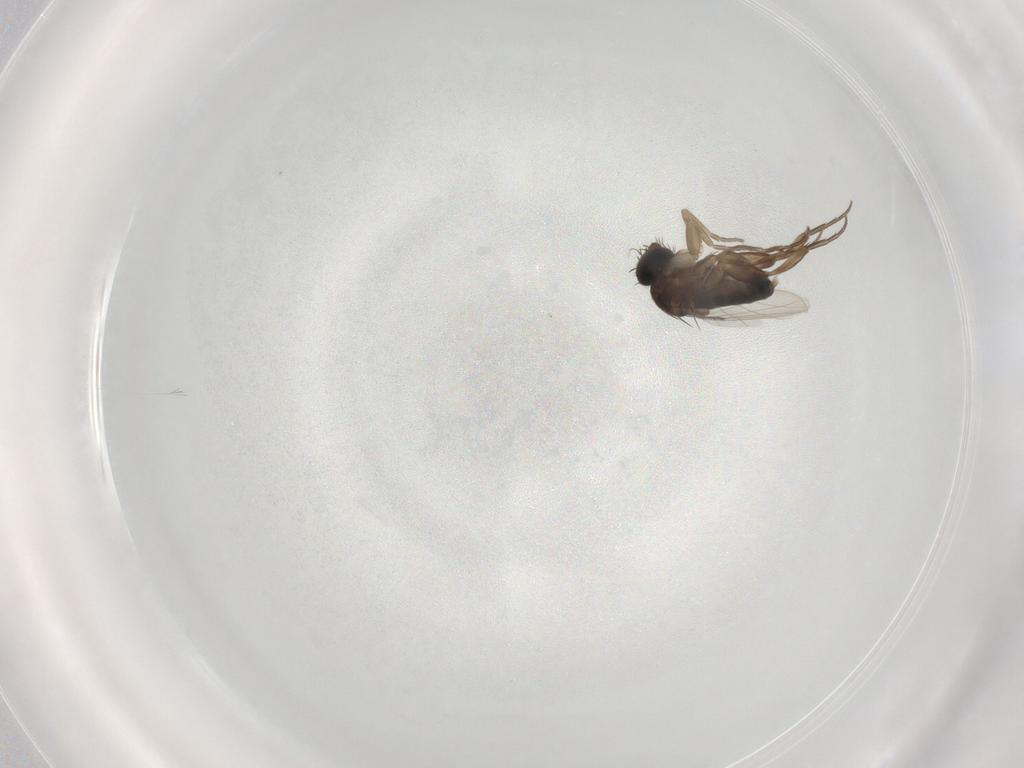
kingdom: Animalia
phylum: Arthropoda
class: Insecta
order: Diptera
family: Phoridae
